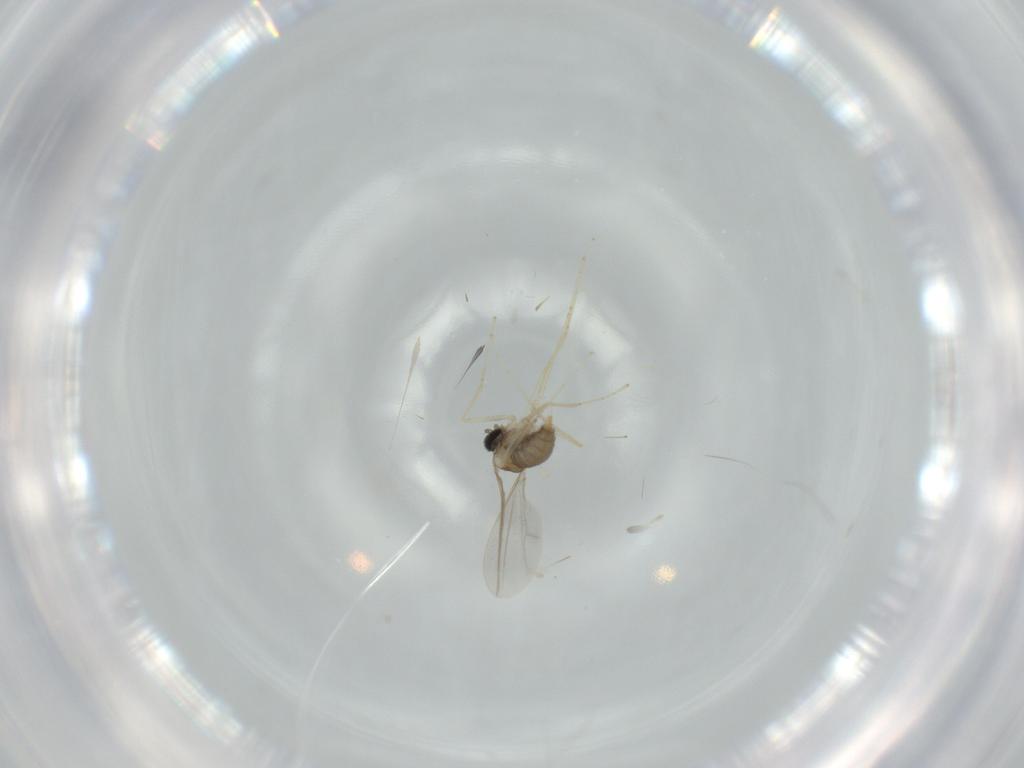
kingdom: Animalia
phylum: Arthropoda
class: Insecta
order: Diptera
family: Cecidomyiidae
